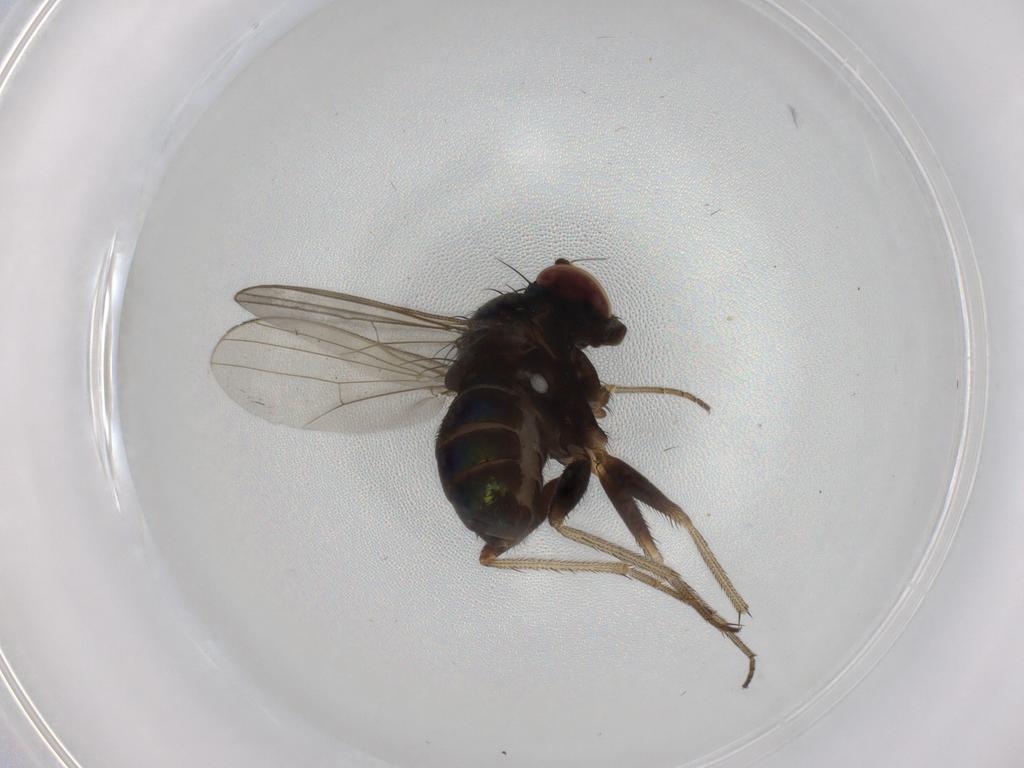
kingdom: Animalia
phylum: Arthropoda
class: Insecta
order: Diptera
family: Dolichopodidae
